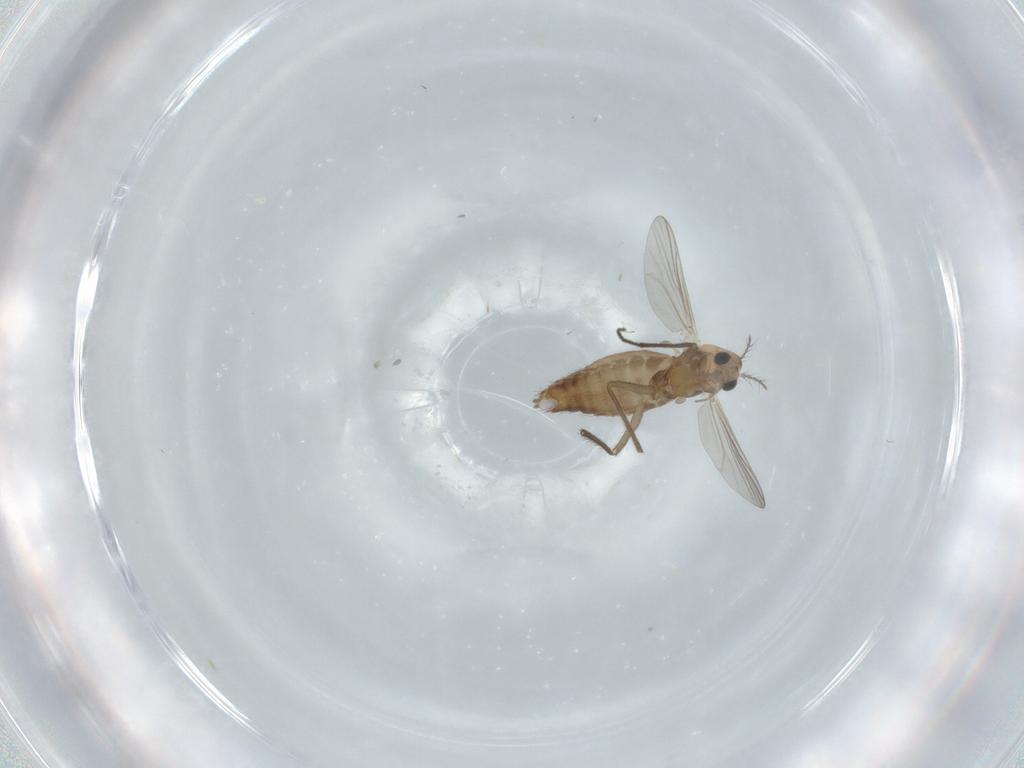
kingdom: Animalia
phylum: Arthropoda
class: Insecta
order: Diptera
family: Chironomidae
